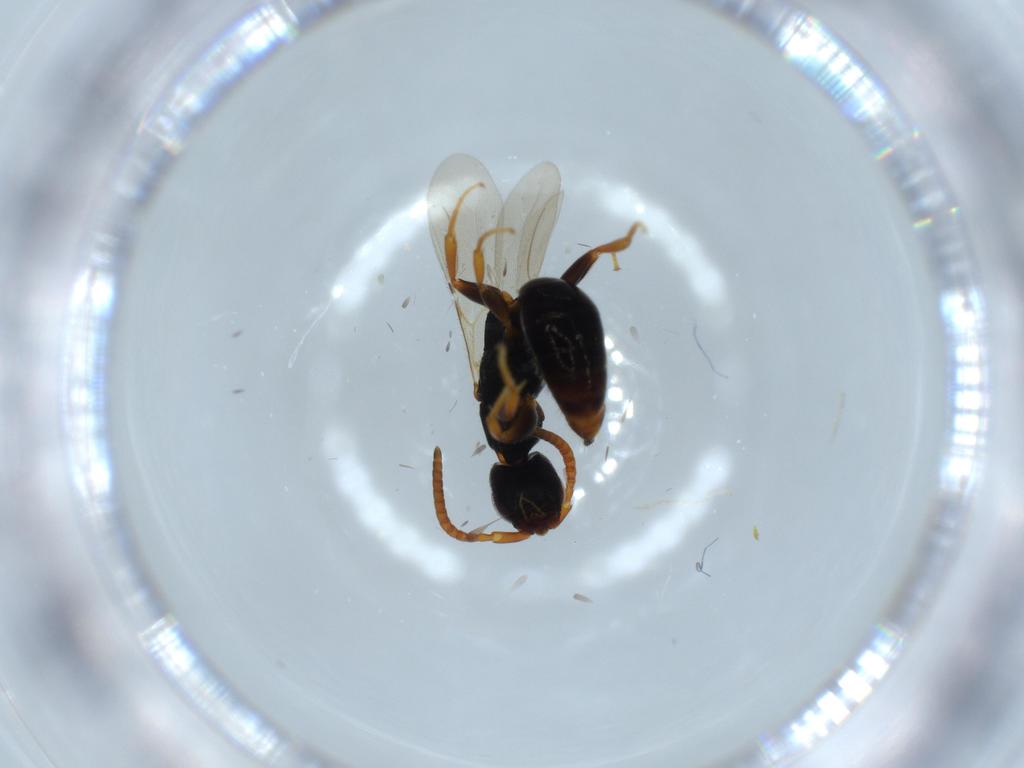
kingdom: Animalia
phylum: Arthropoda
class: Insecta
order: Hymenoptera
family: Mymaridae
